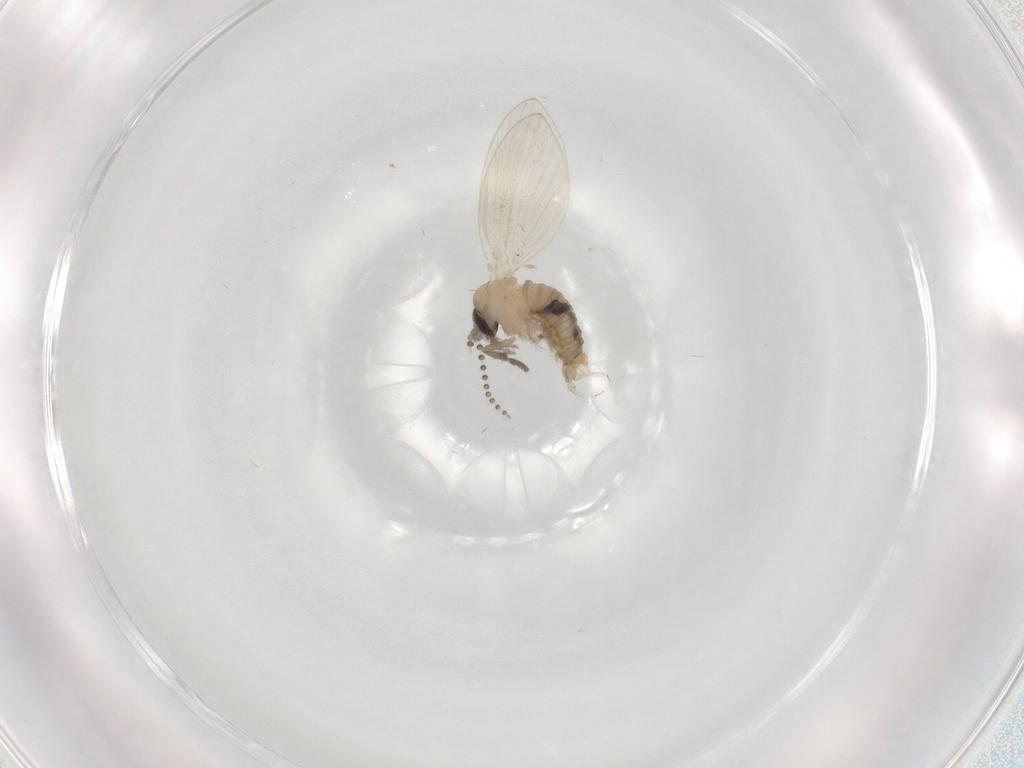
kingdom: Animalia
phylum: Arthropoda
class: Insecta
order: Diptera
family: Psychodidae
